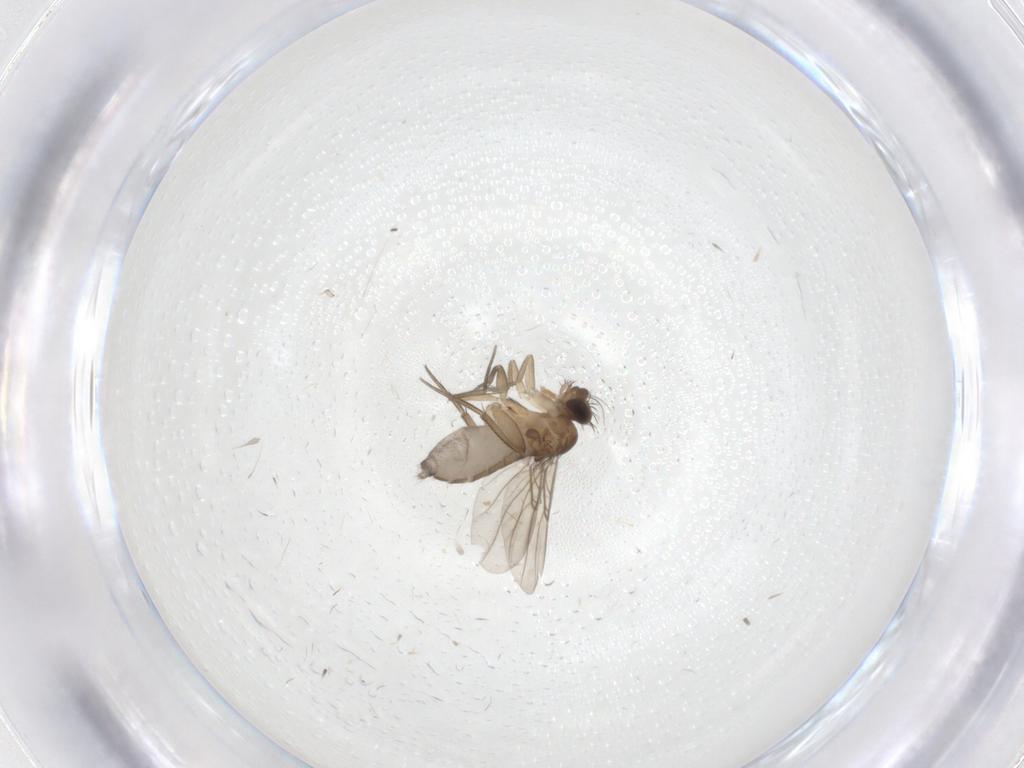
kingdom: Animalia
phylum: Arthropoda
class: Insecta
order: Diptera
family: Phoridae
